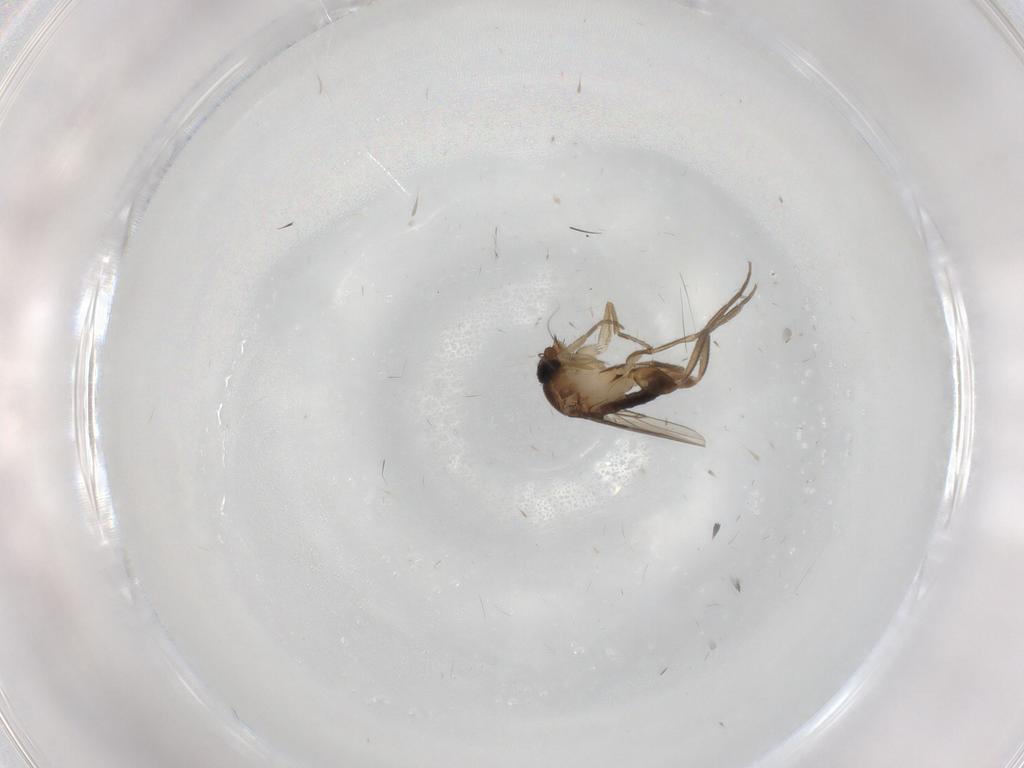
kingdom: Animalia
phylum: Arthropoda
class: Insecta
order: Diptera
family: Phoridae
